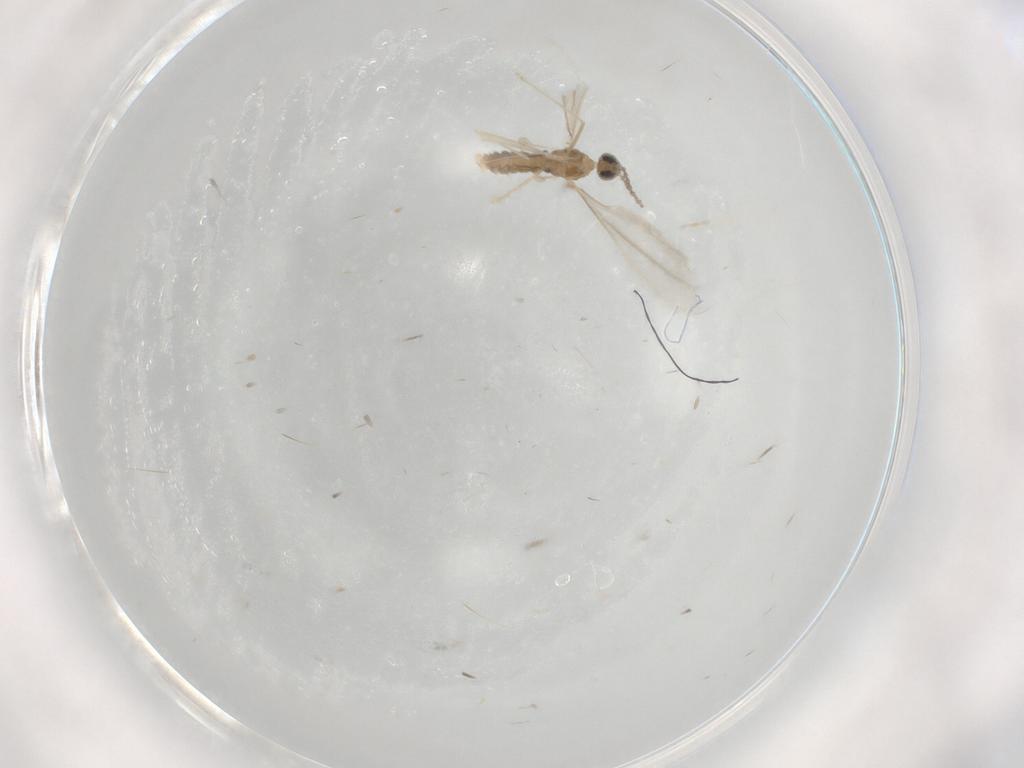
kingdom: Animalia
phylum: Arthropoda
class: Insecta
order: Diptera
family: Cecidomyiidae
